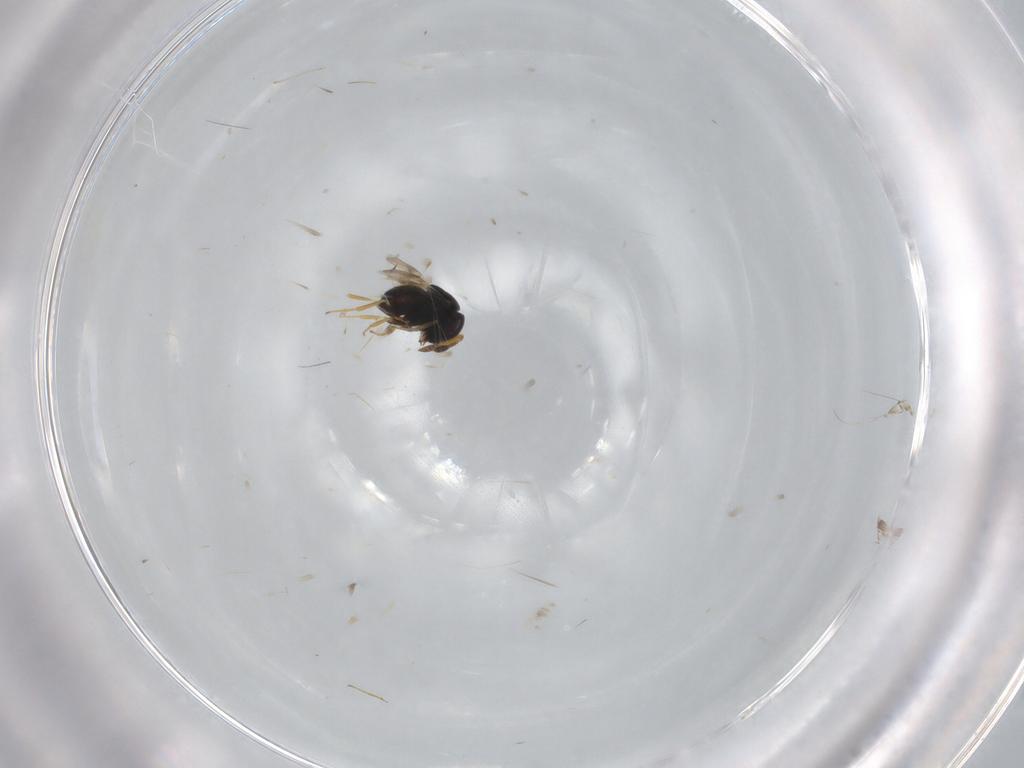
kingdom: Animalia
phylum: Arthropoda
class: Insecta
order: Hymenoptera
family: Scelionidae
